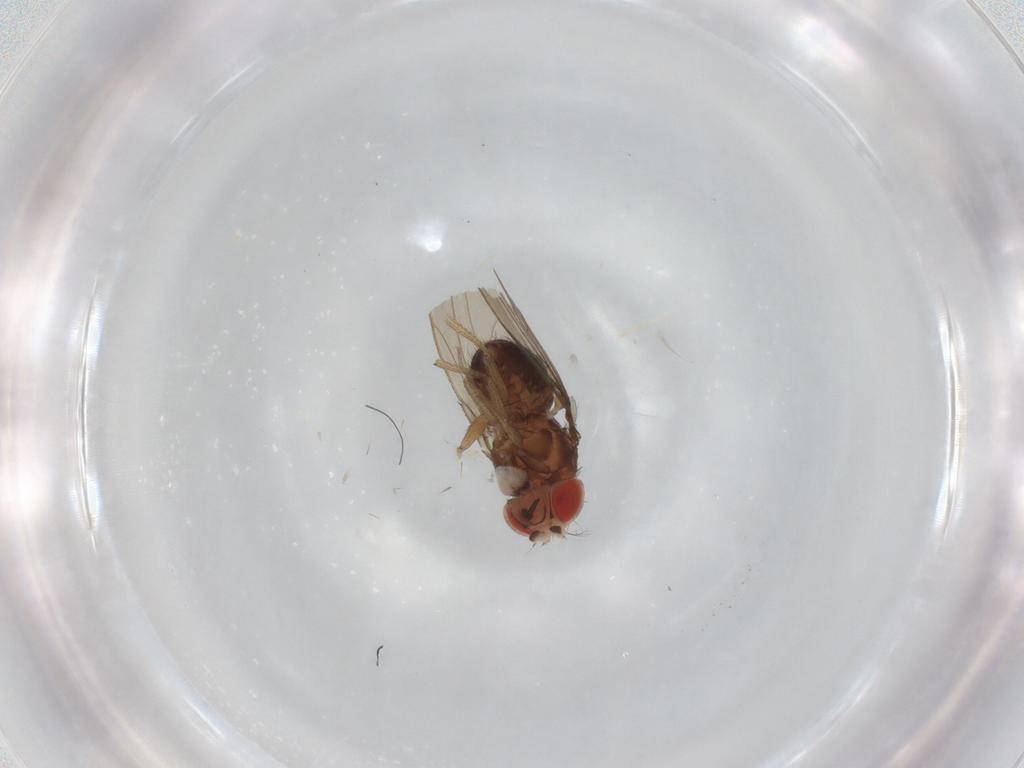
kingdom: Animalia
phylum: Arthropoda
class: Insecta
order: Diptera
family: Drosophilidae
